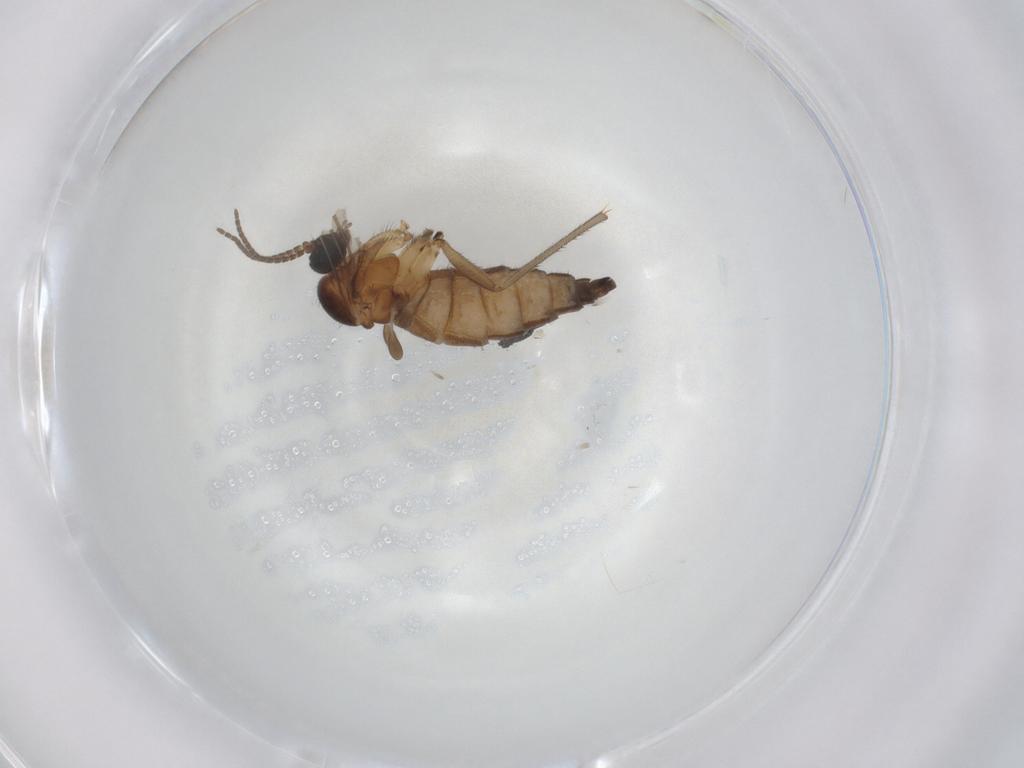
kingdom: Animalia
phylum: Arthropoda
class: Insecta
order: Diptera
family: Sciaridae
